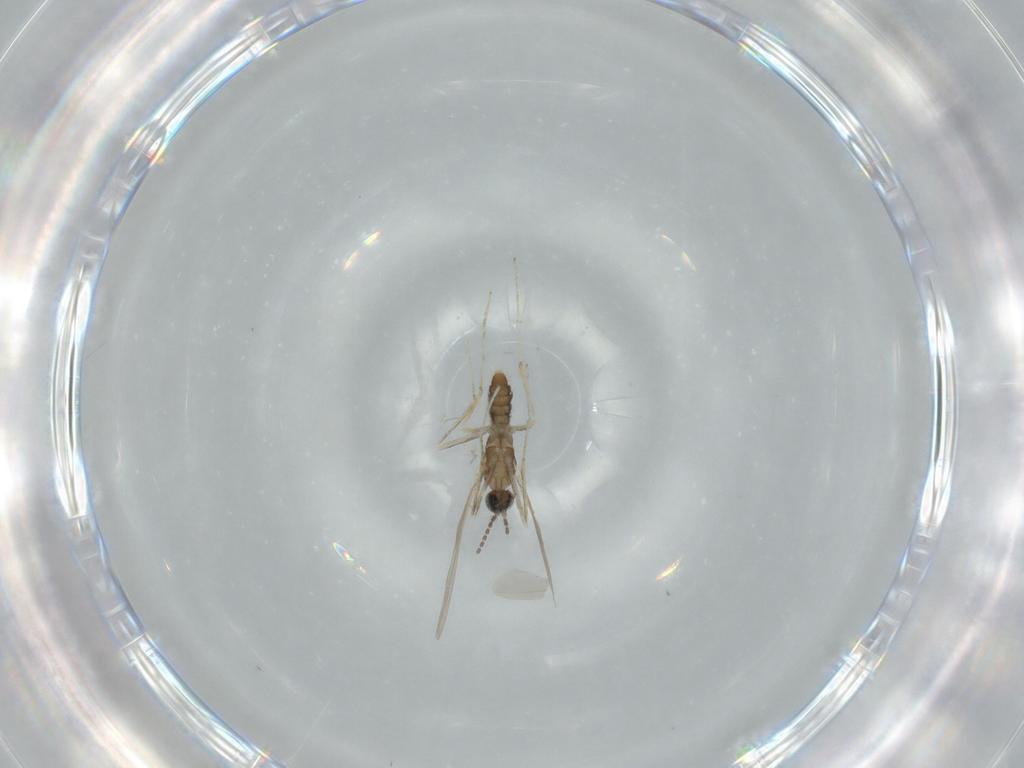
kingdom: Animalia
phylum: Arthropoda
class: Insecta
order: Diptera
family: Cecidomyiidae
